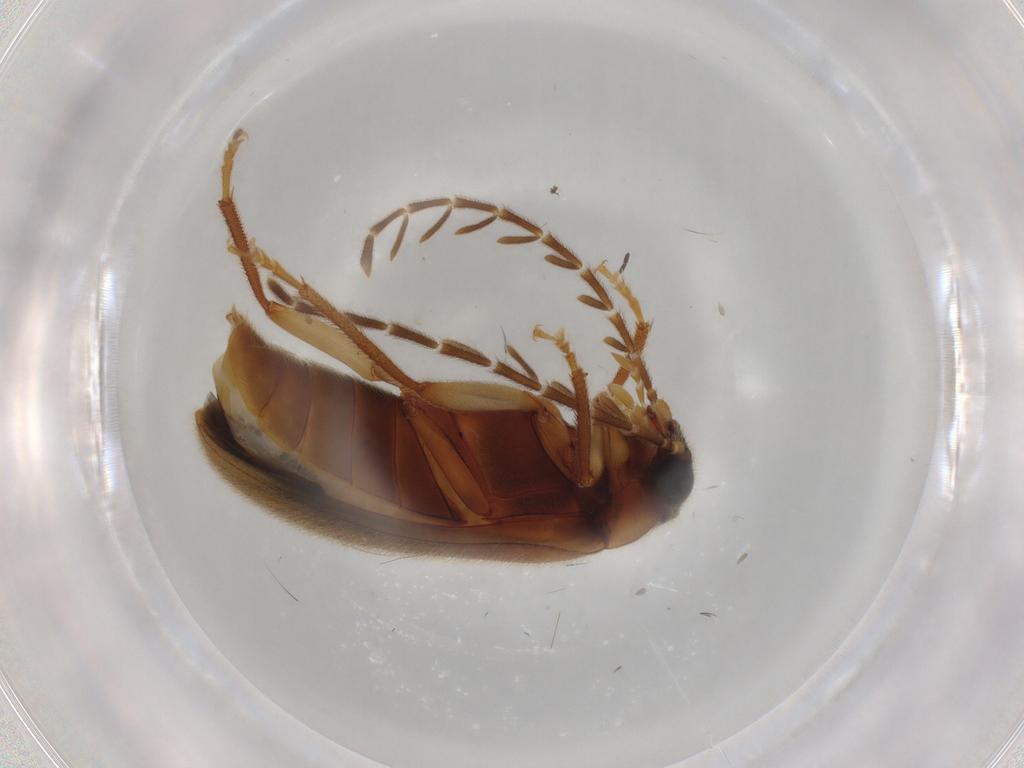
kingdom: Animalia
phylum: Arthropoda
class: Insecta
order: Coleoptera
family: Ptilodactylidae
